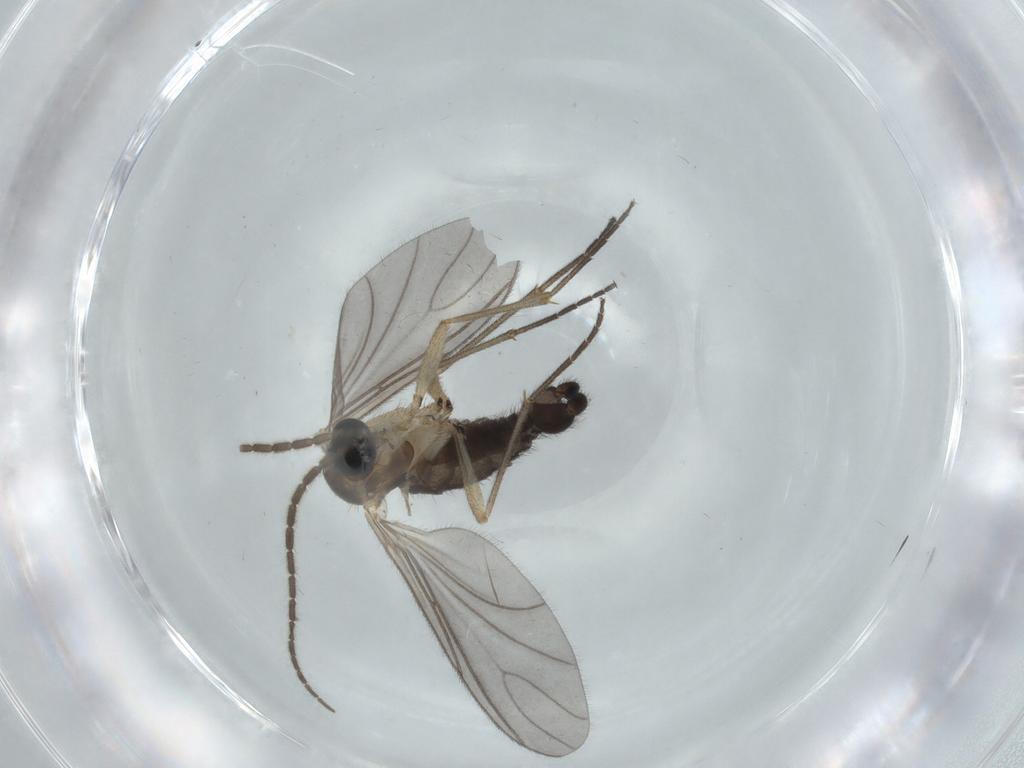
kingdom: Animalia
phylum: Arthropoda
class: Insecta
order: Diptera
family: Sciaridae
